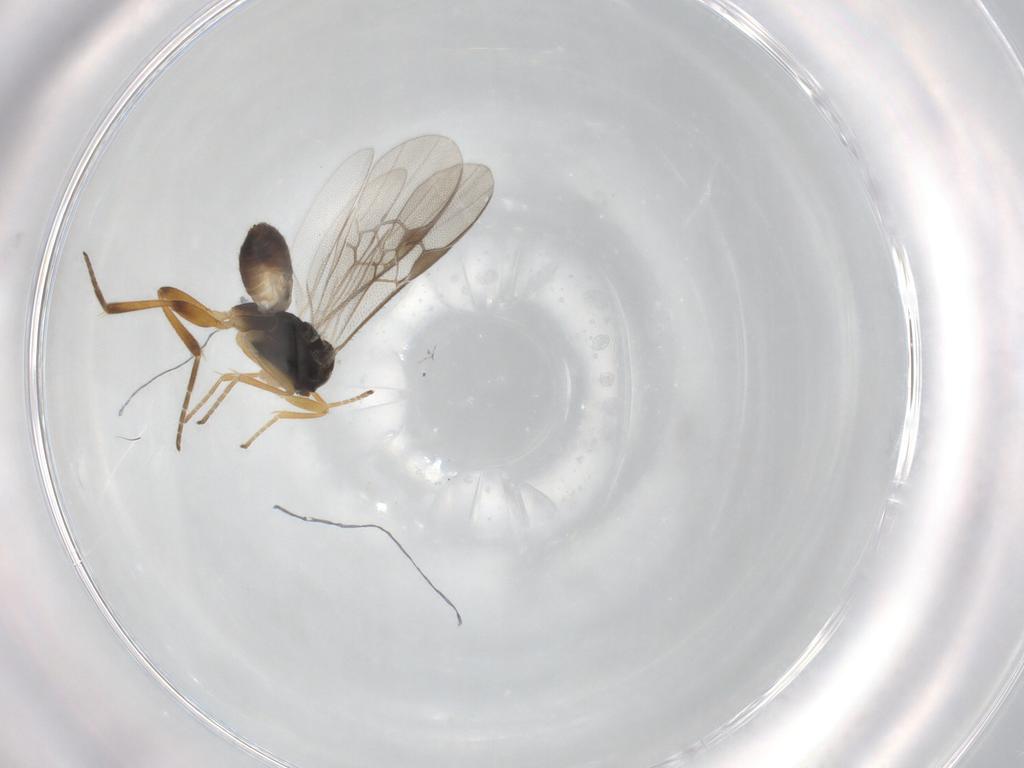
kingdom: Animalia
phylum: Arthropoda
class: Insecta
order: Hymenoptera
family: Braconidae
